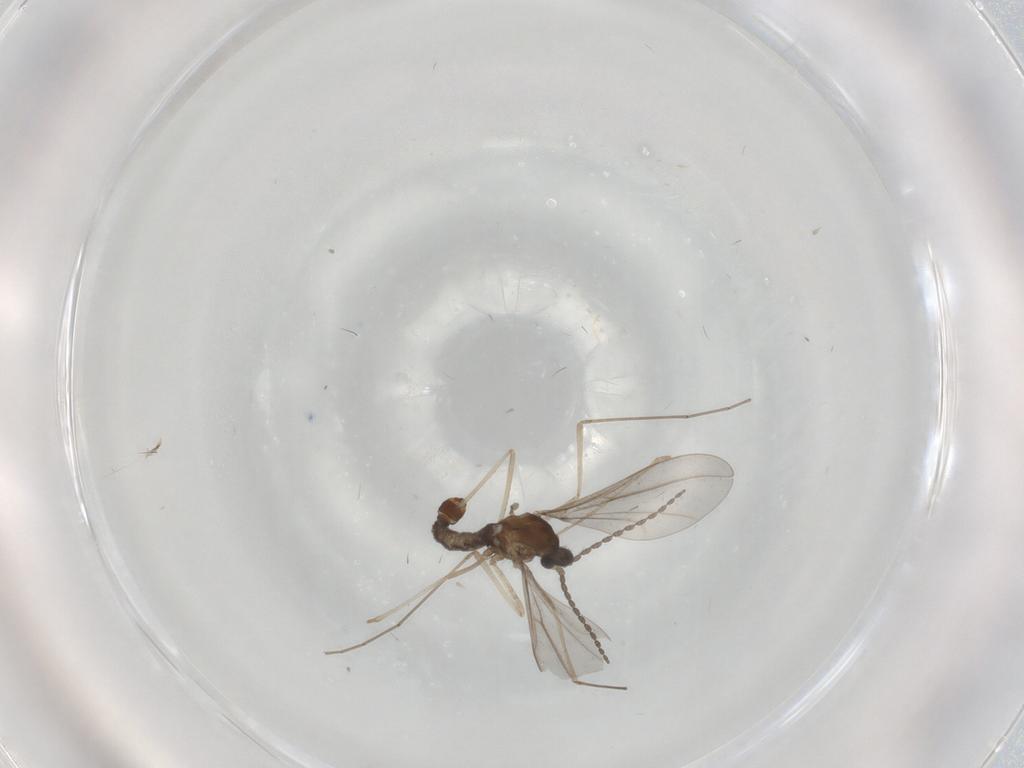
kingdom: Animalia
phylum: Arthropoda
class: Insecta
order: Diptera
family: Cecidomyiidae
